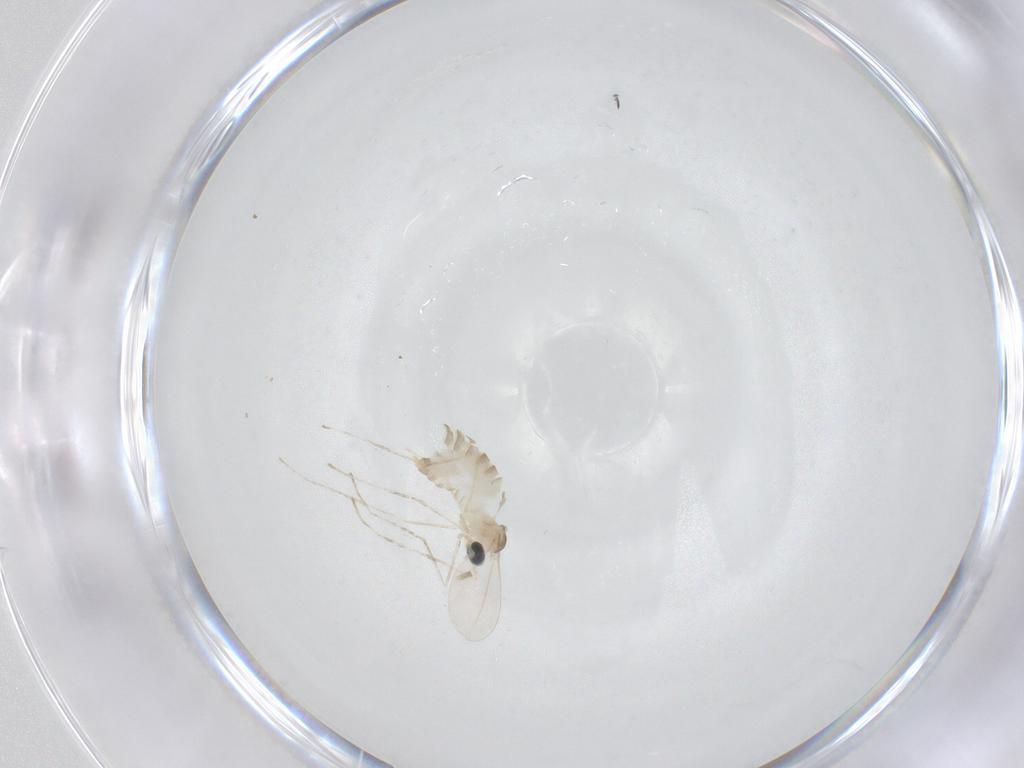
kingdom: Animalia
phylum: Arthropoda
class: Insecta
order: Diptera
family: Cecidomyiidae
